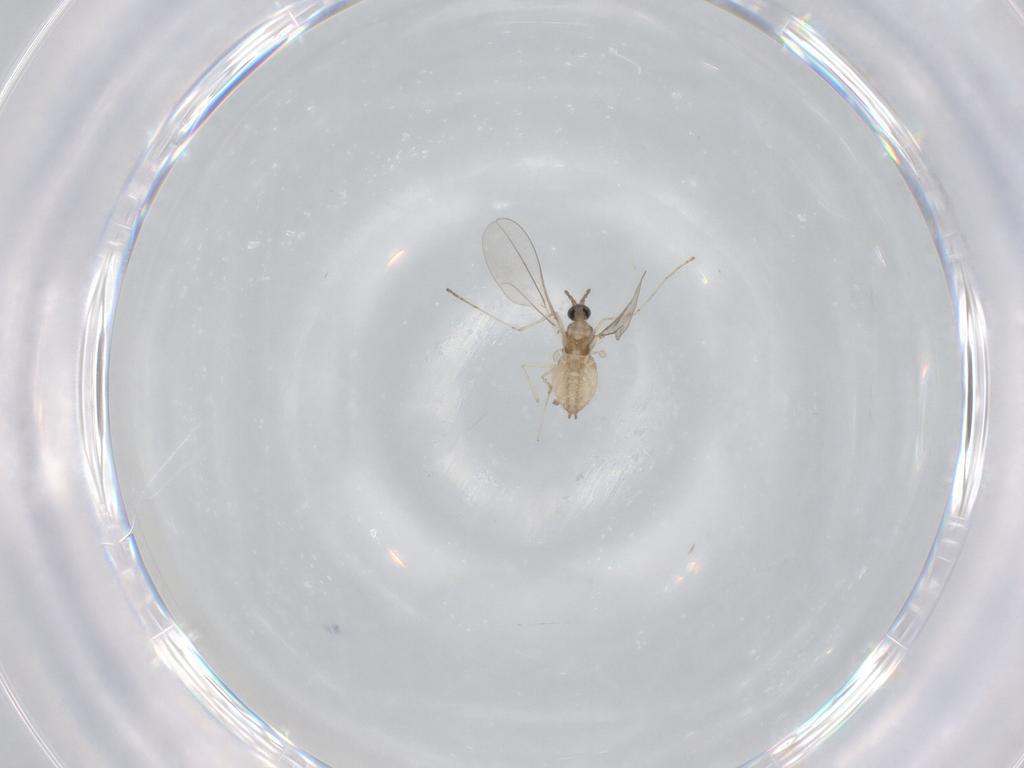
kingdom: Animalia
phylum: Arthropoda
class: Insecta
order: Diptera
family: Cecidomyiidae
